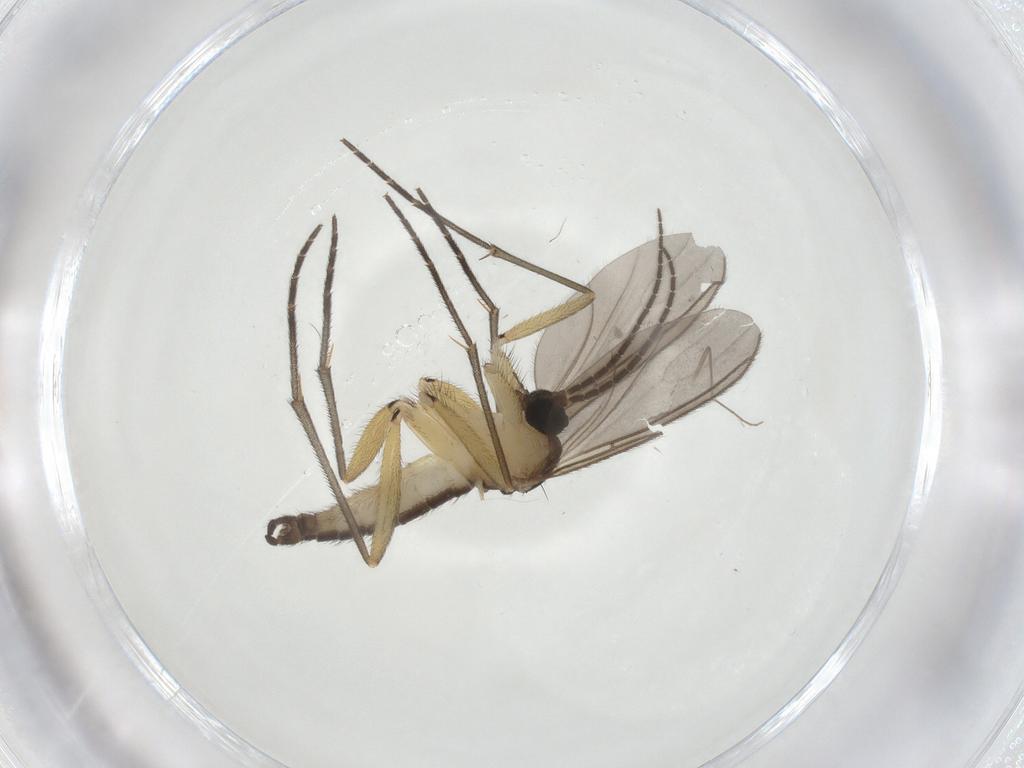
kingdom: Animalia
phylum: Arthropoda
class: Insecta
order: Diptera
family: Sciaridae
